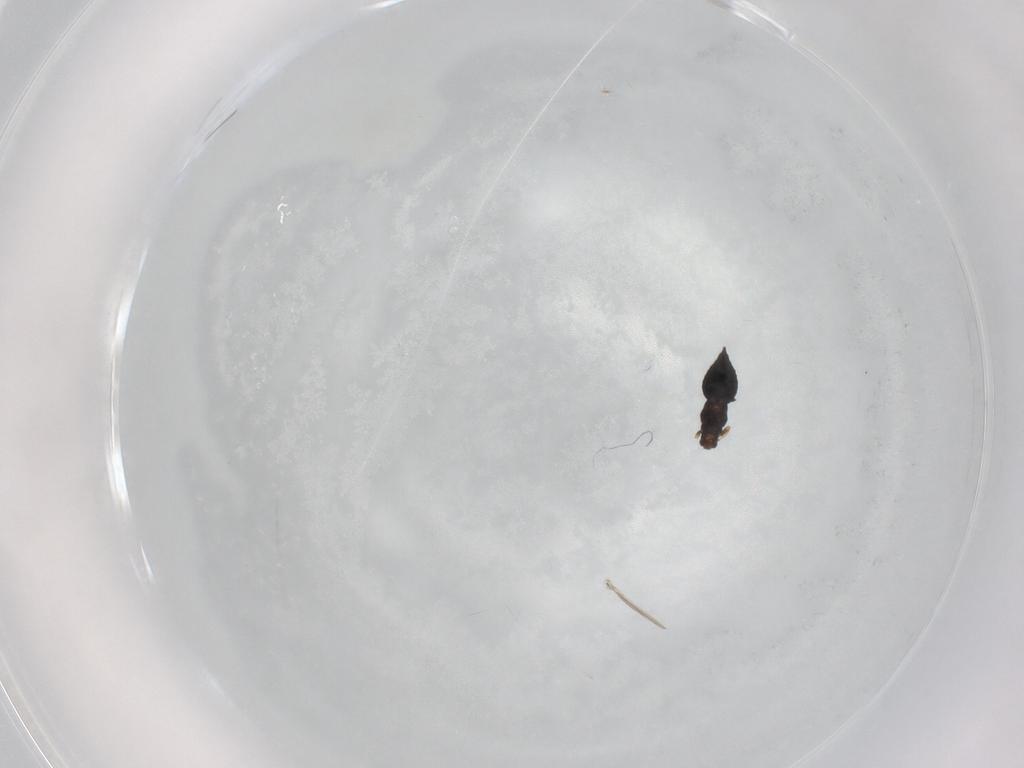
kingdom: Animalia
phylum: Arthropoda
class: Insecta
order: Thysanoptera
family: Thripidae
